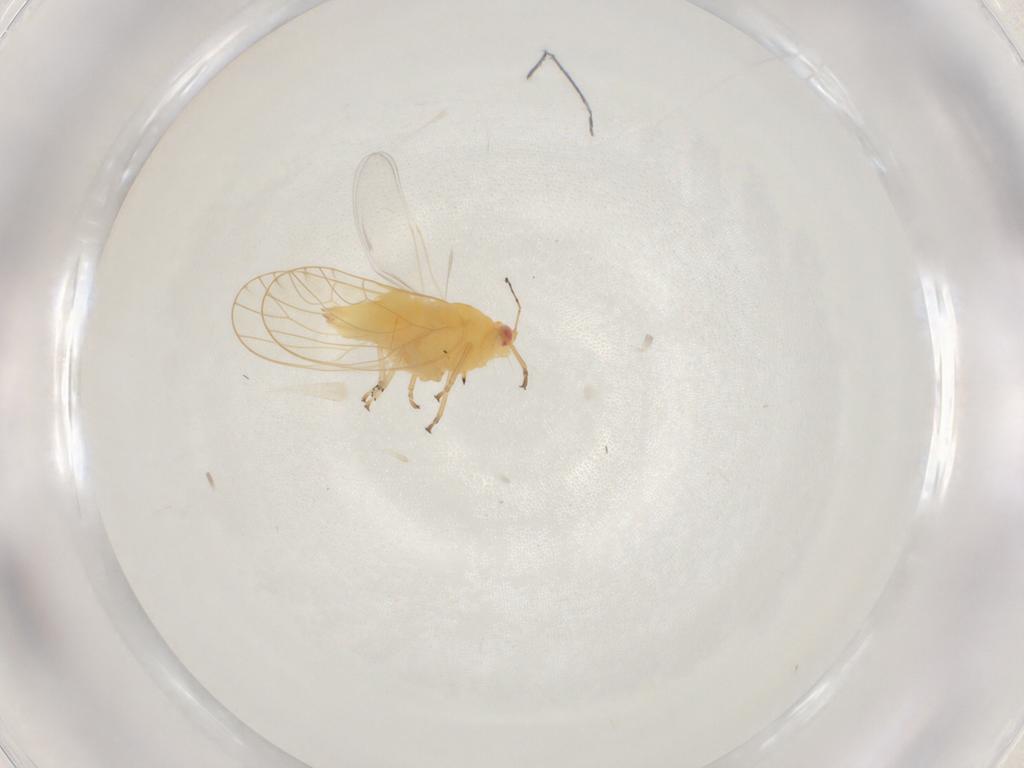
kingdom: Animalia
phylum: Arthropoda
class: Insecta
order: Hemiptera
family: Psyllidae
